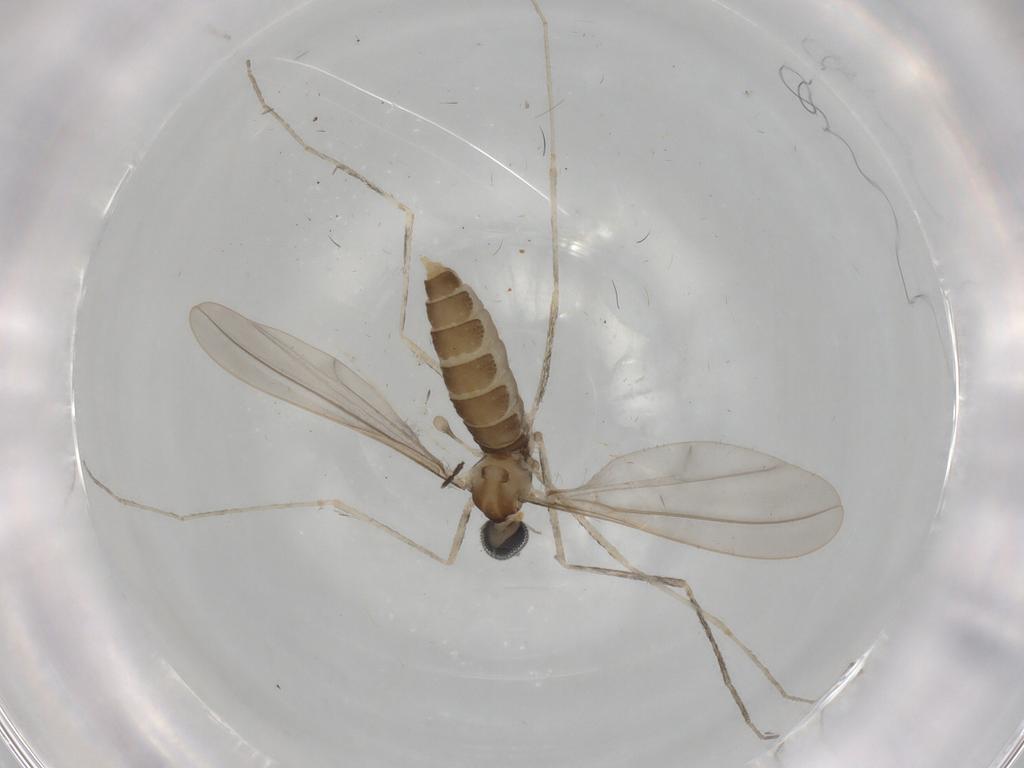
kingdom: Animalia
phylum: Arthropoda
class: Insecta
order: Diptera
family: Cecidomyiidae
